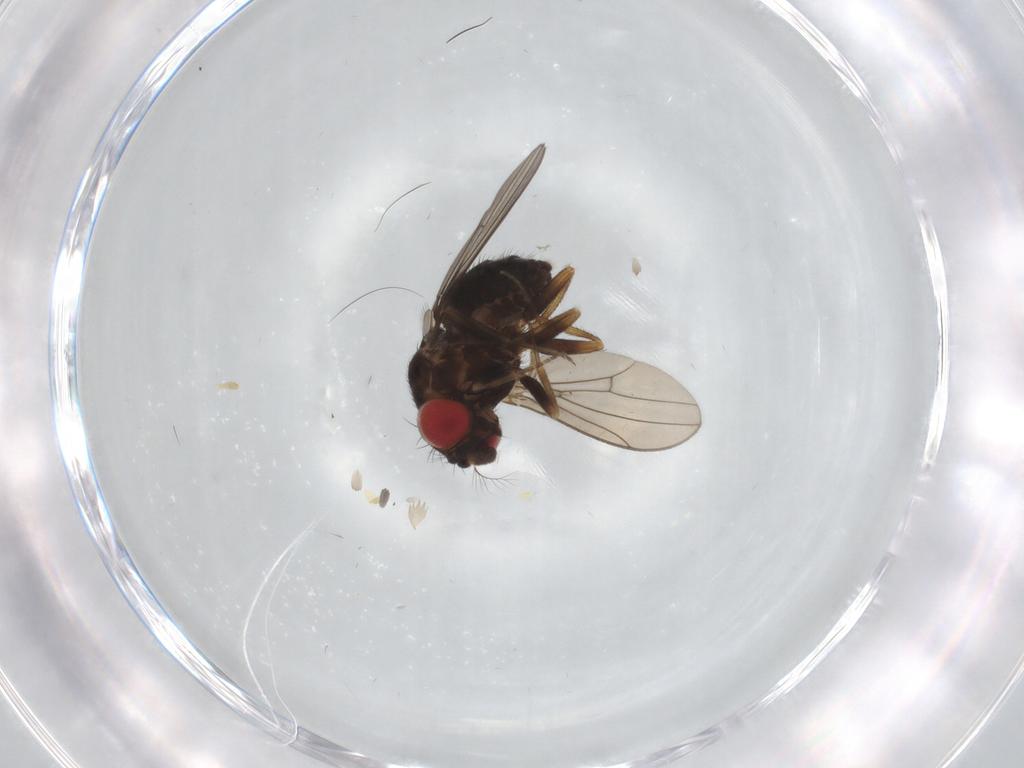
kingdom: Animalia
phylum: Arthropoda
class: Insecta
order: Diptera
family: Drosophilidae
